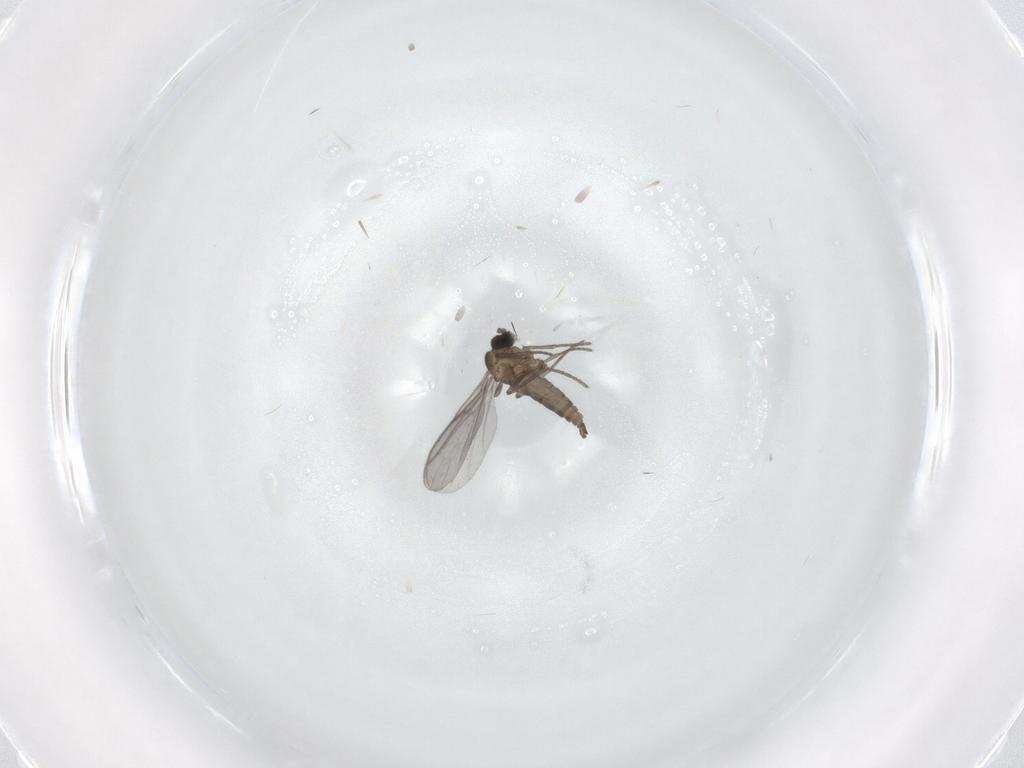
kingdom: Animalia
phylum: Arthropoda
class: Insecta
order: Diptera
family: Sciaridae
